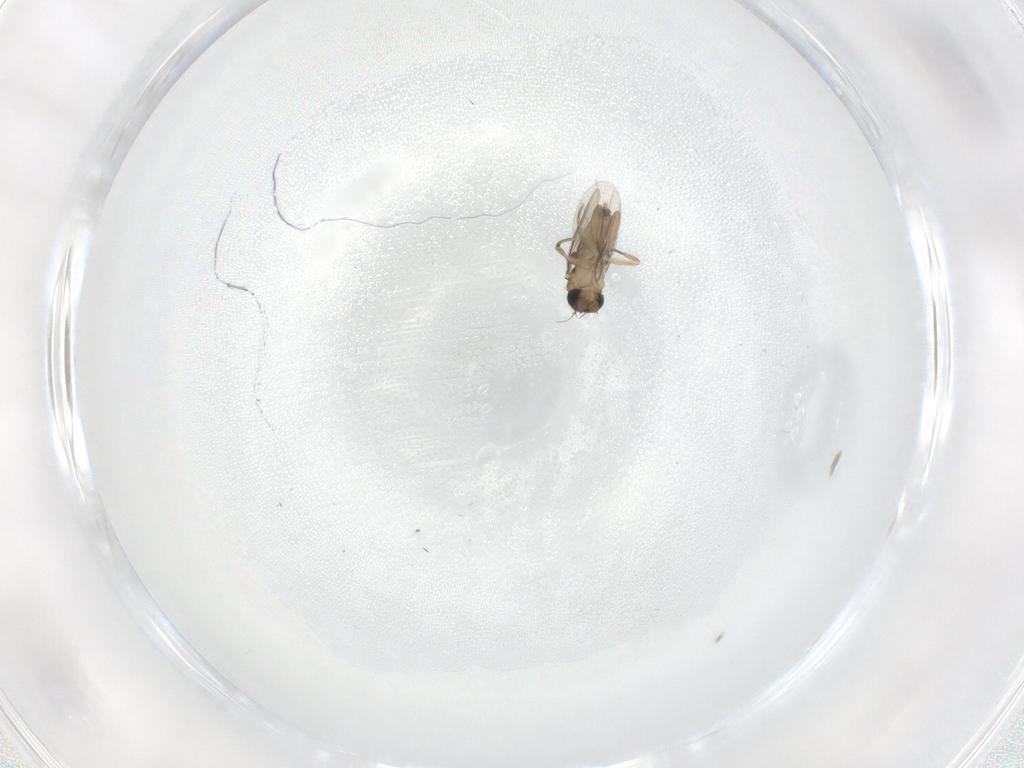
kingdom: Animalia
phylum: Arthropoda
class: Insecta
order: Diptera
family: Phoridae
